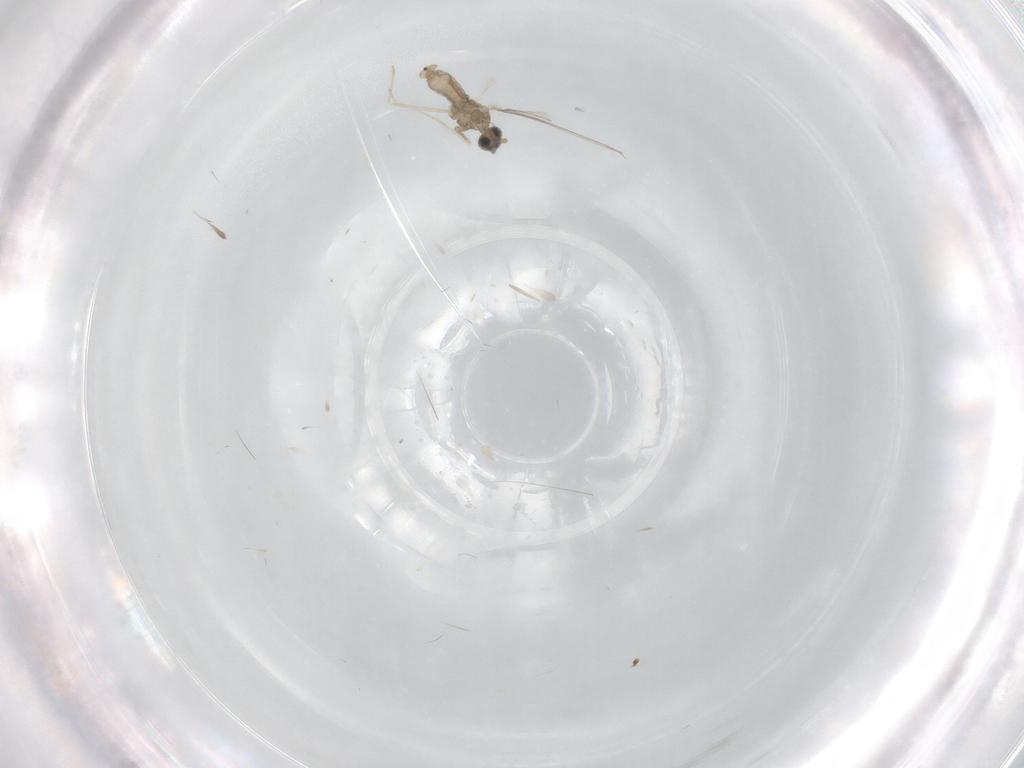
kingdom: Animalia
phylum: Arthropoda
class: Insecta
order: Diptera
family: Cecidomyiidae
